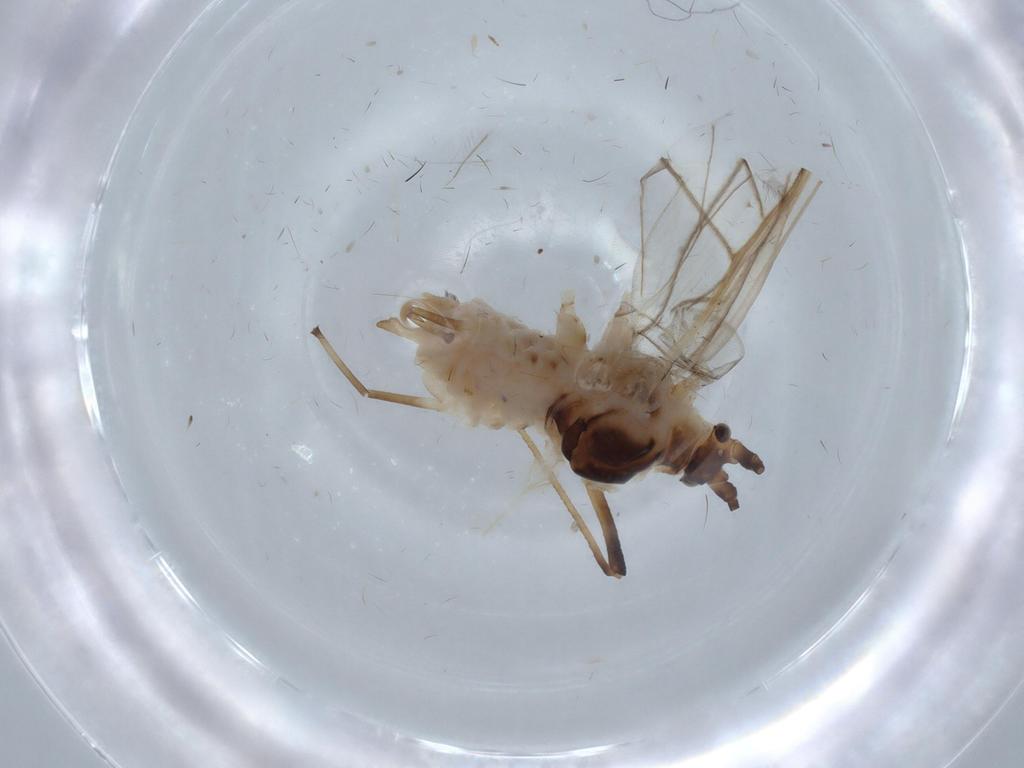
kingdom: Animalia
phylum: Arthropoda
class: Insecta
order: Hemiptera
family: Aphididae
